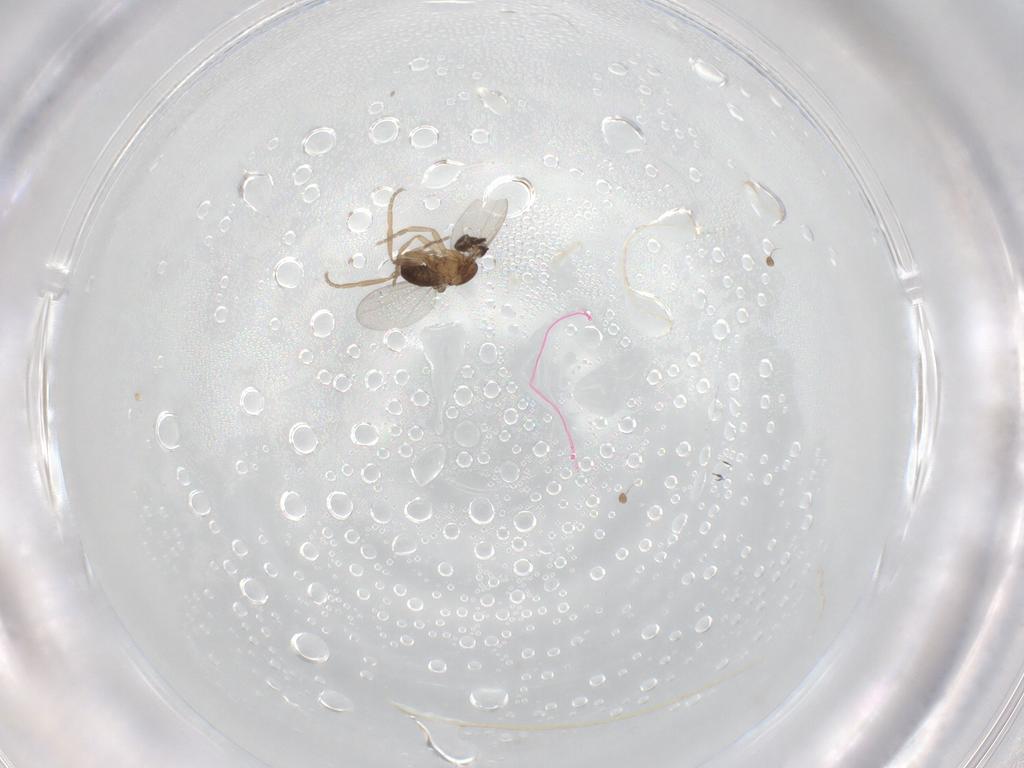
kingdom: Animalia
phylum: Arthropoda
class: Insecta
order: Diptera
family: Phoridae
